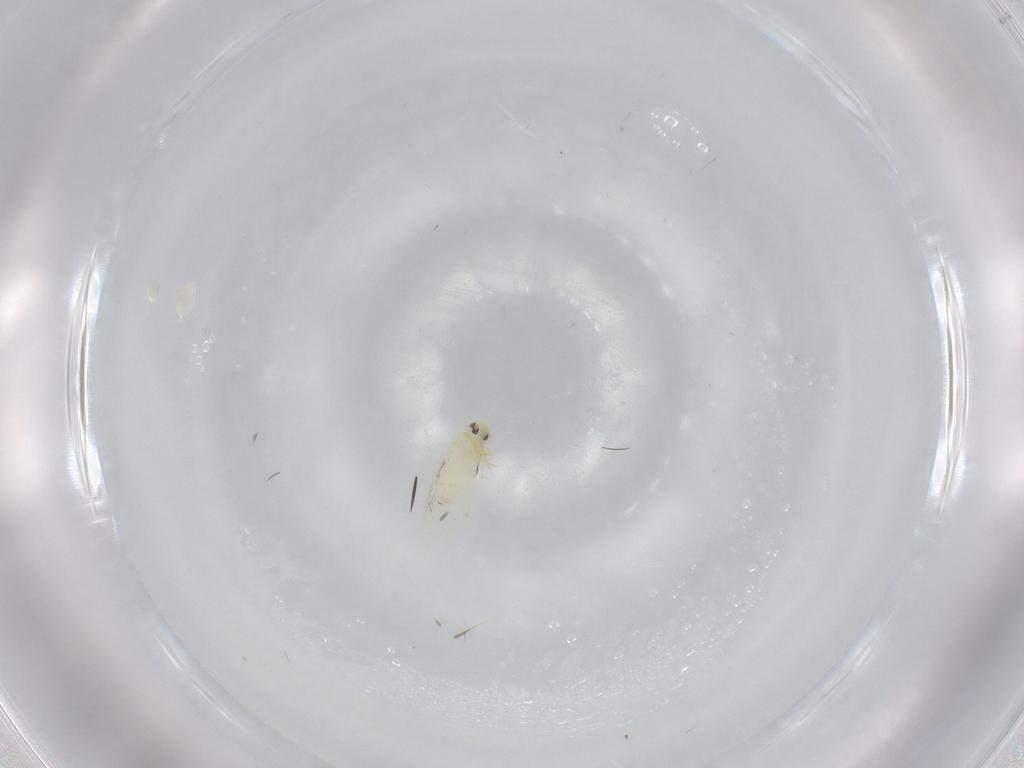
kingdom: Animalia
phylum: Arthropoda
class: Insecta
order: Hemiptera
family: Aleyrodidae
